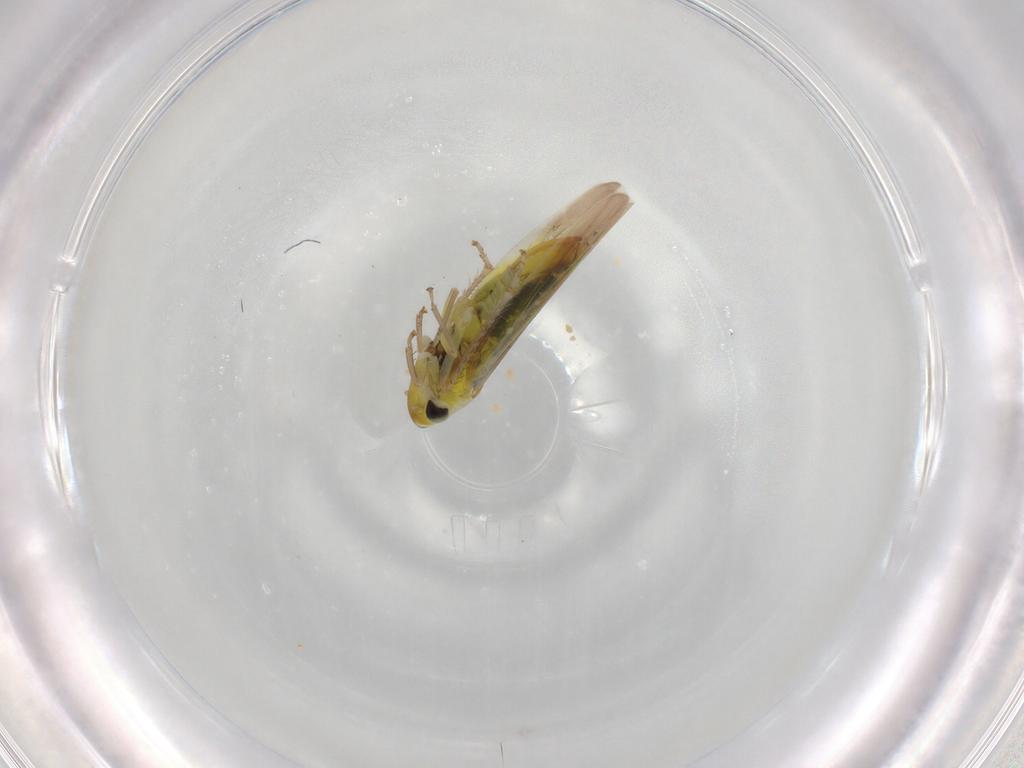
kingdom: Animalia
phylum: Arthropoda
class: Insecta
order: Hemiptera
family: Cicadellidae
